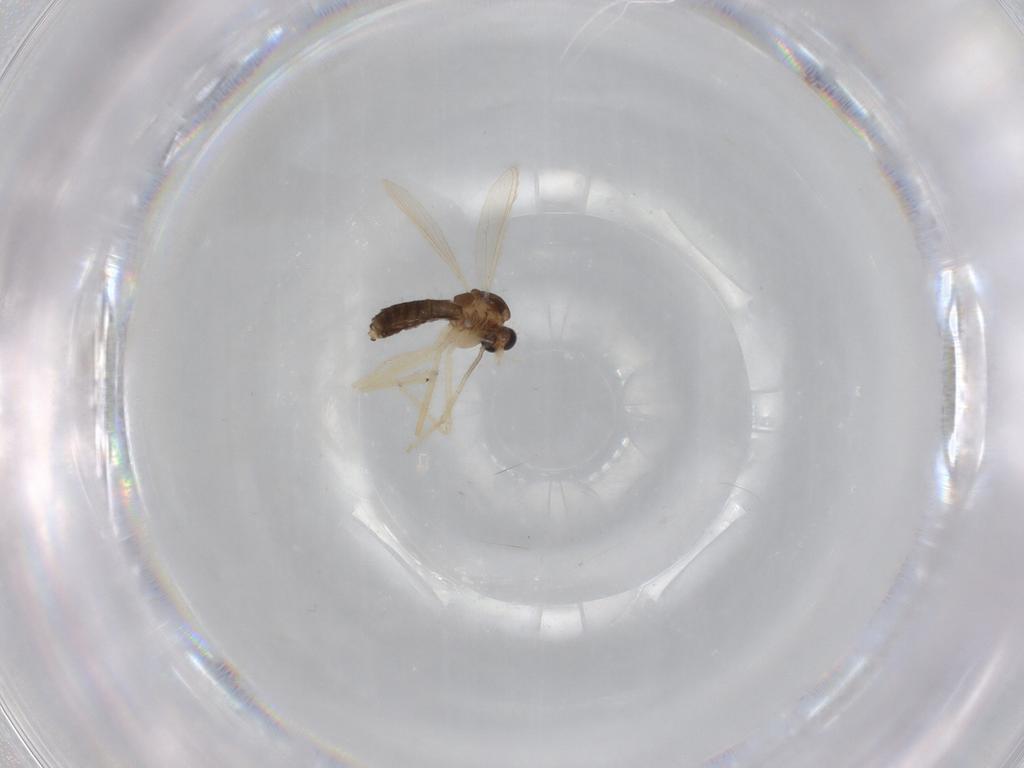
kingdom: Animalia
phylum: Arthropoda
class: Insecta
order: Diptera
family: Chironomidae
